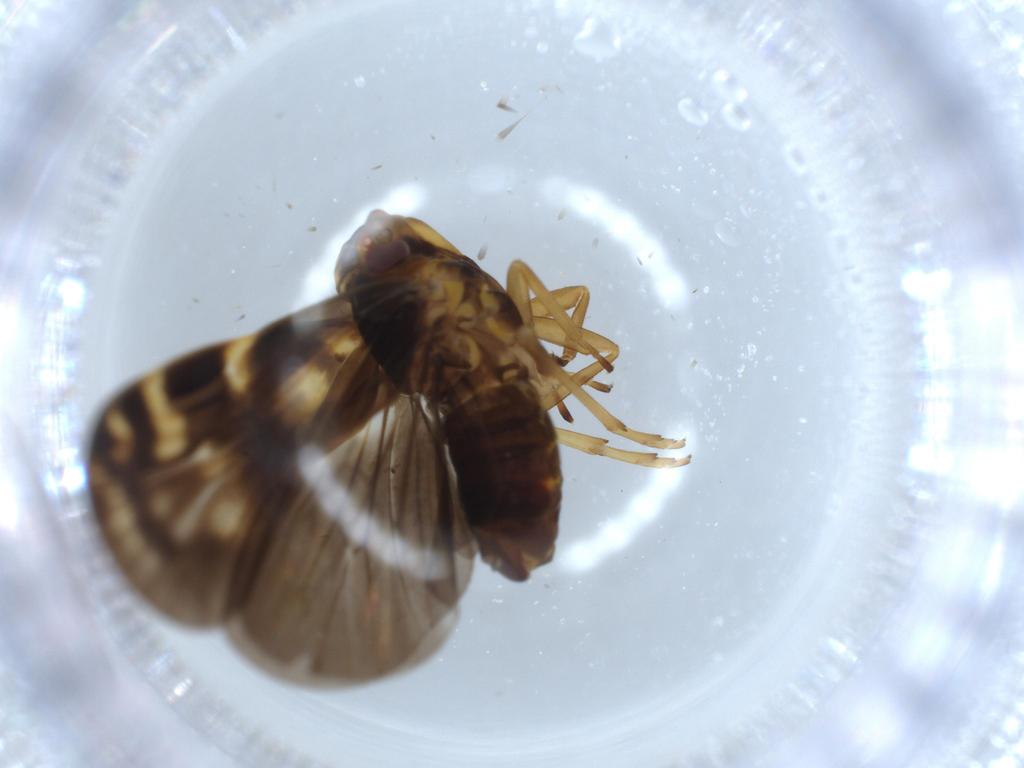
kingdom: Animalia
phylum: Arthropoda
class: Insecta
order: Hemiptera
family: Cixiidae
